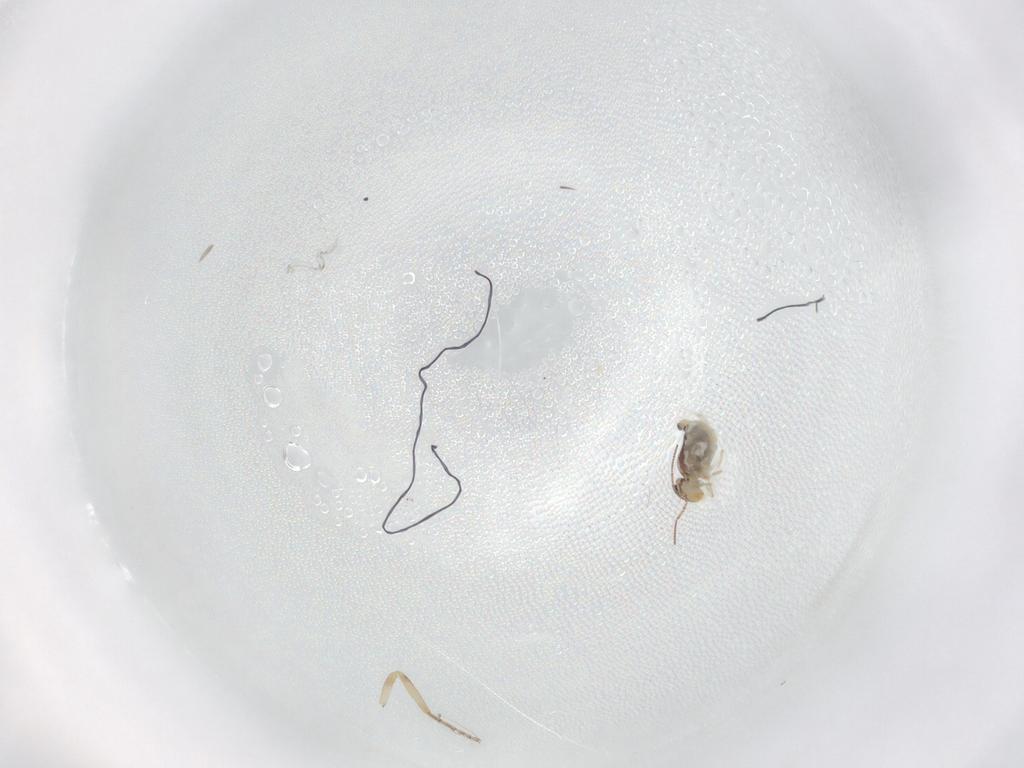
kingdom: Animalia
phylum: Arthropoda
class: Collembola
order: Symphypleona
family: Bourletiellidae
